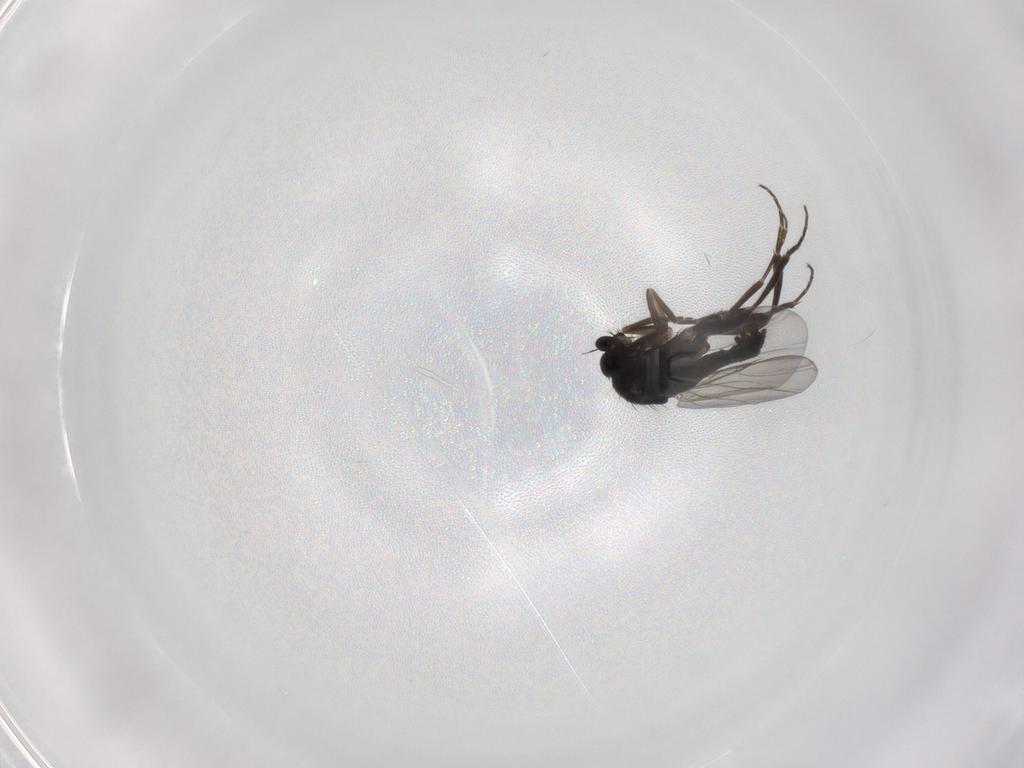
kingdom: Animalia
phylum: Arthropoda
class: Insecta
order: Diptera
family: Phoridae
